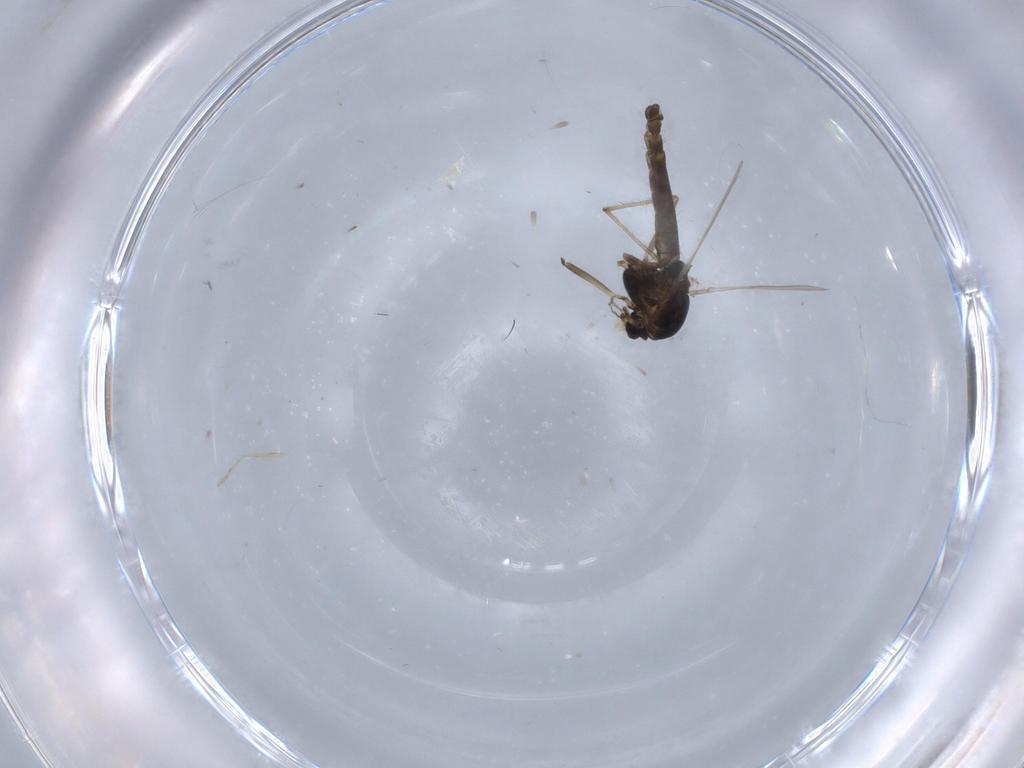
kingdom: Animalia
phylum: Arthropoda
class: Insecta
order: Diptera
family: Chironomidae
